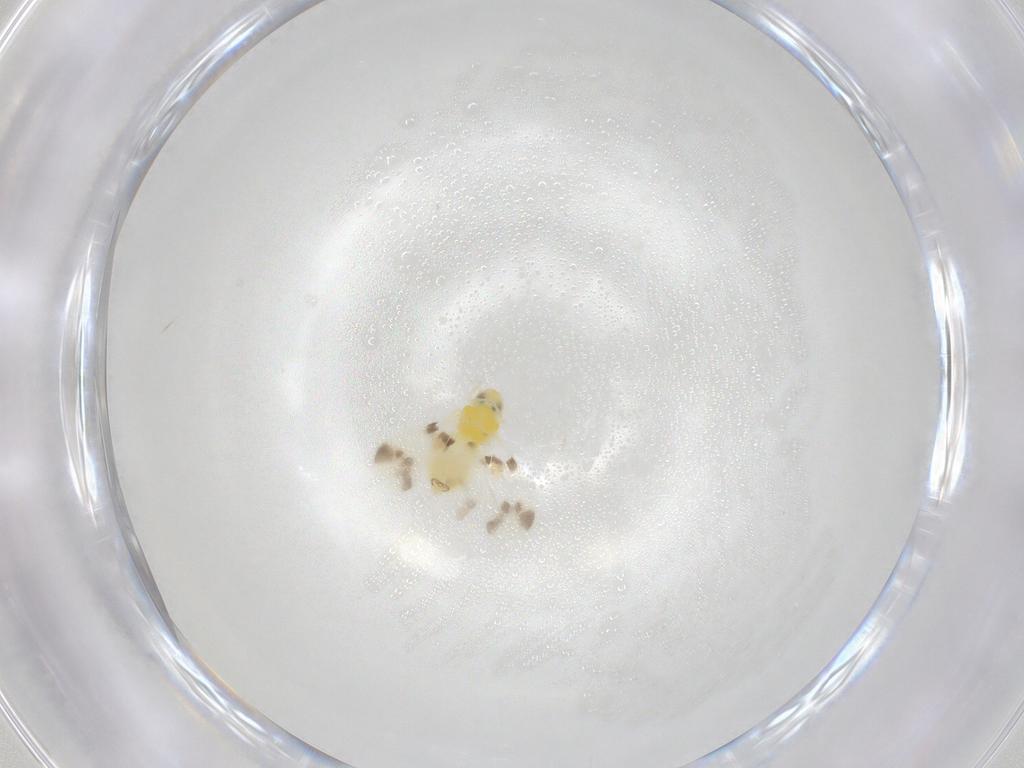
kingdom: Animalia
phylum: Arthropoda
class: Insecta
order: Hemiptera
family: Aleyrodidae
